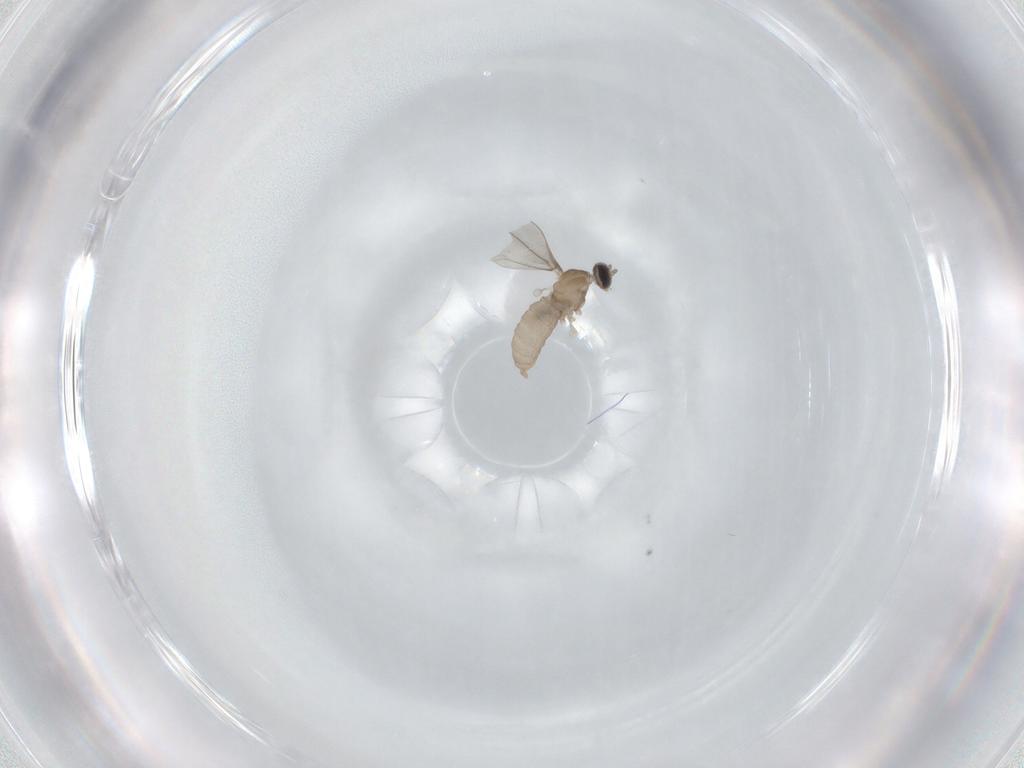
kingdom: Animalia
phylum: Arthropoda
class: Insecta
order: Diptera
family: Cecidomyiidae
